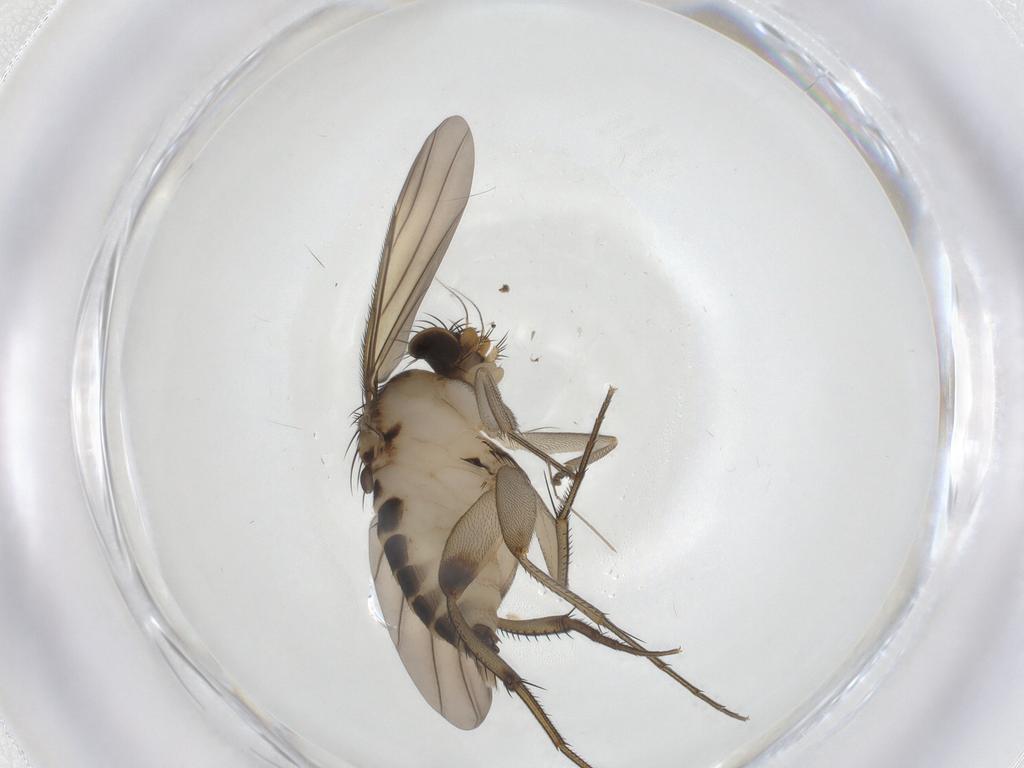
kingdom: Animalia
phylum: Arthropoda
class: Insecta
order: Diptera
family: Phoridae
